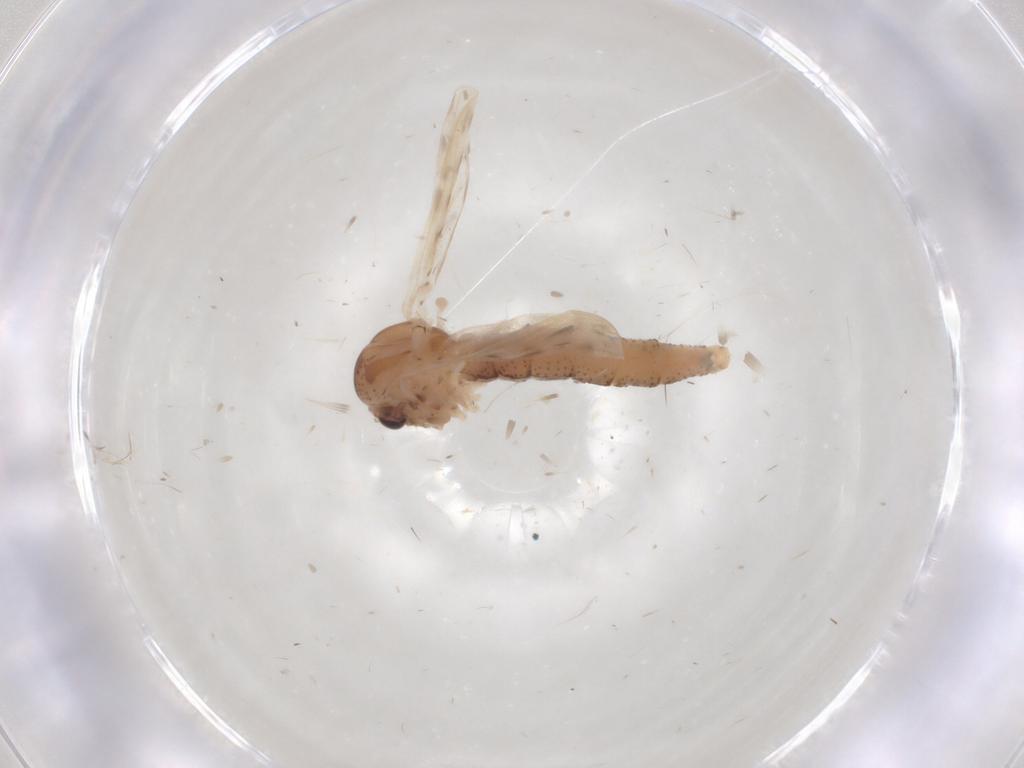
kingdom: Animalia
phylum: Arthropoda
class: Insecta
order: Diptera
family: Chaoboridae
